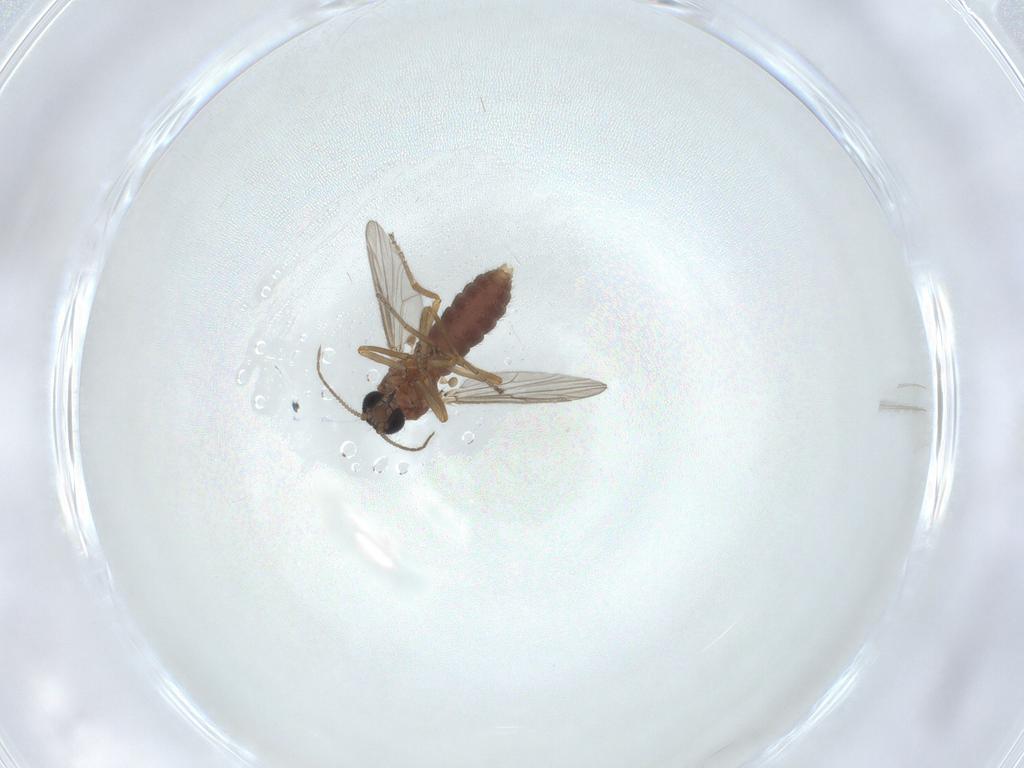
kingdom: Animalia
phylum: Arthropoda
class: Insecta
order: Diptera
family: Ceratopogonidae
